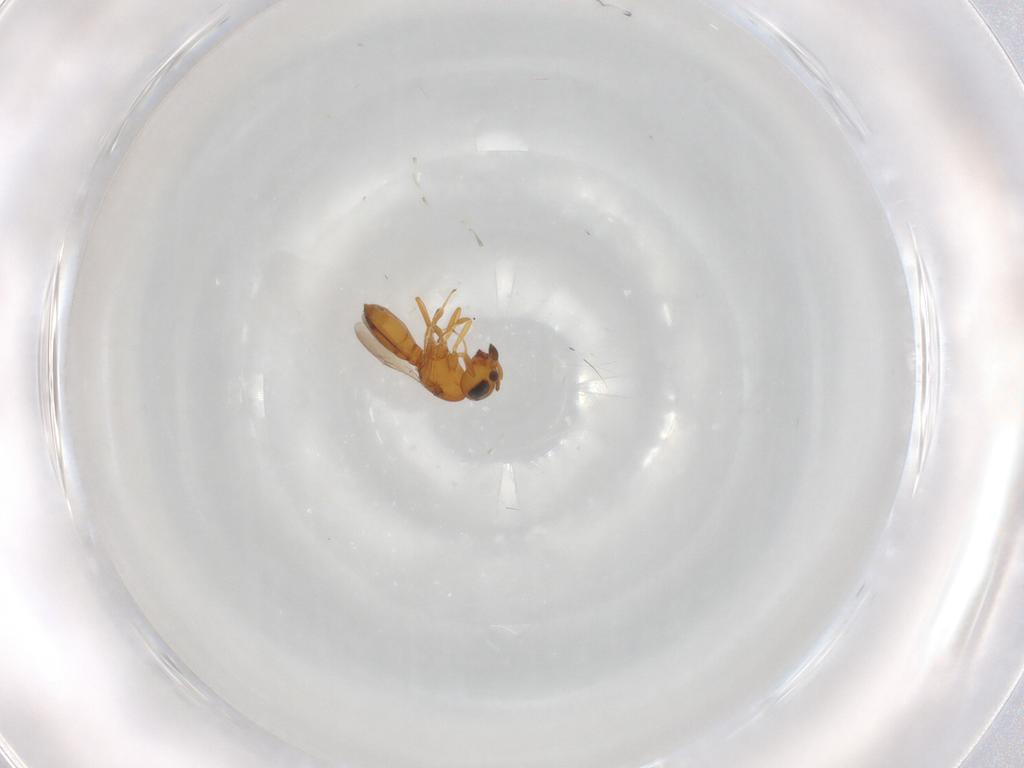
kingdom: Animalia
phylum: Arthropoda
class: Insecta
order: Hymenoptera
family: Scelionidae
